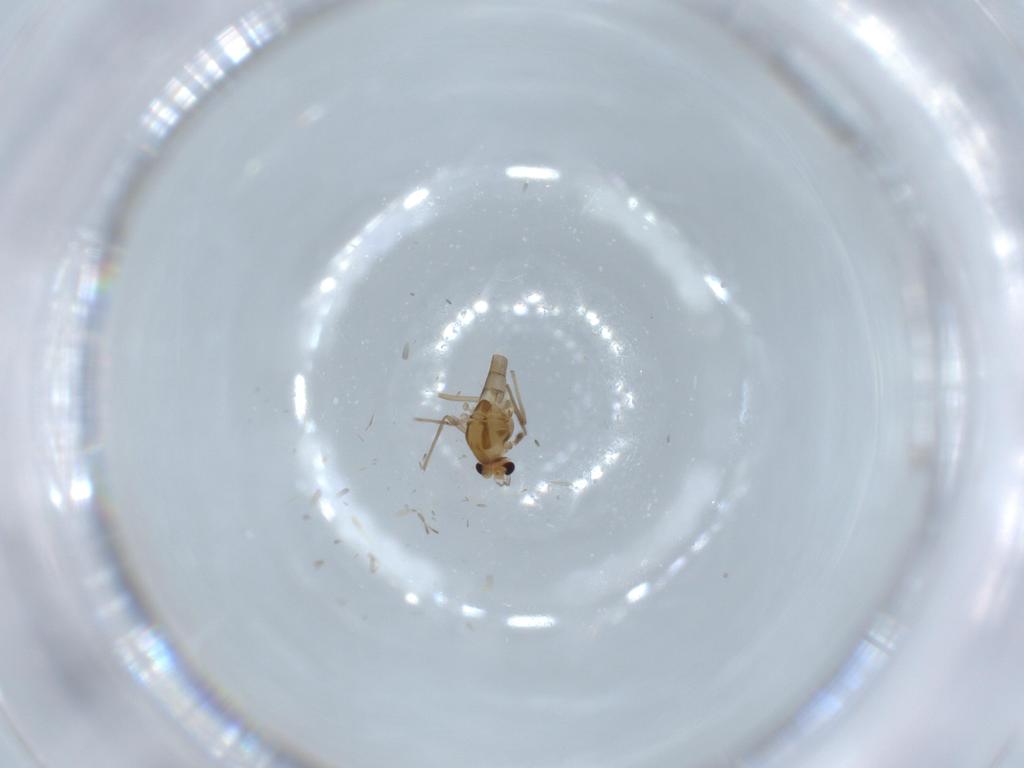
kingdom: Animalia
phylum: Arthropoda
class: Insecta
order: Diptera
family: Chironomidae
